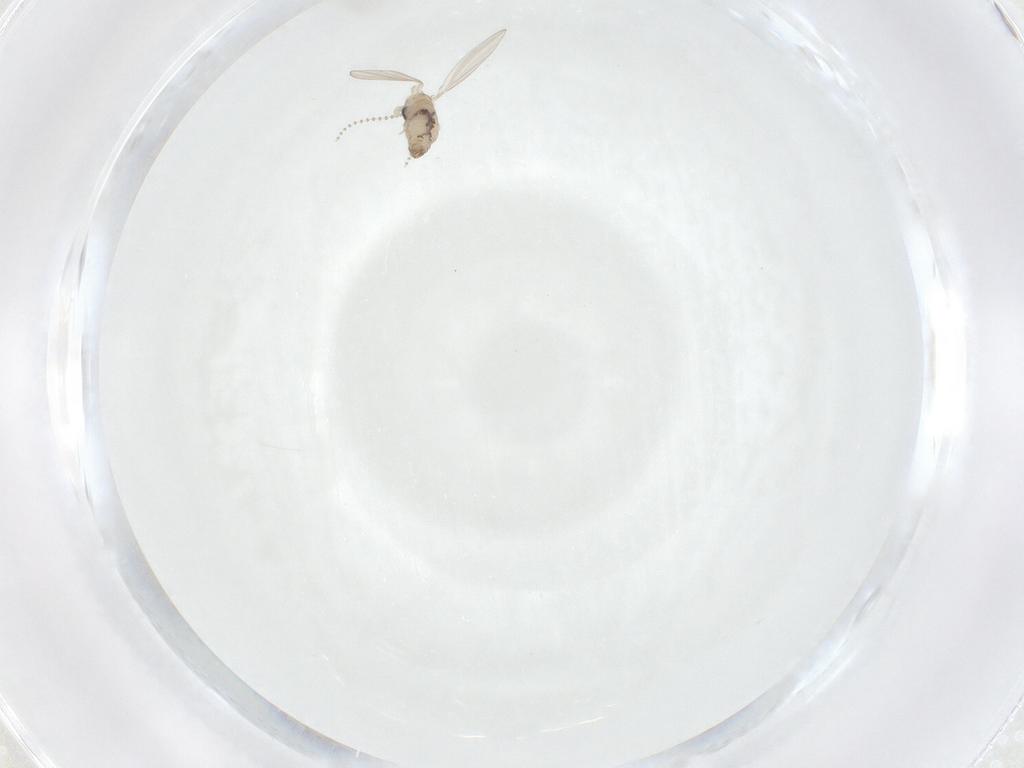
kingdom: Animalia
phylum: Arthropoda
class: Insecta
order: Diptera
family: Psychodidae
